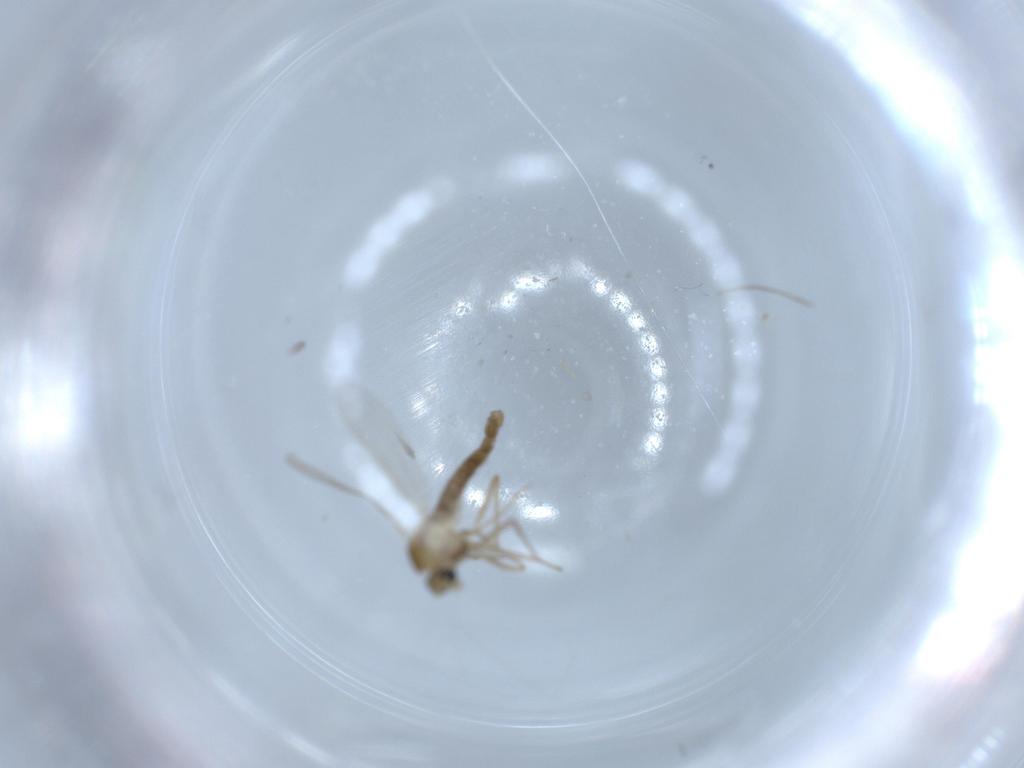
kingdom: Animalia
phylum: Arthropoda
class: Insecta
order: Diptera
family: Chironomidae
